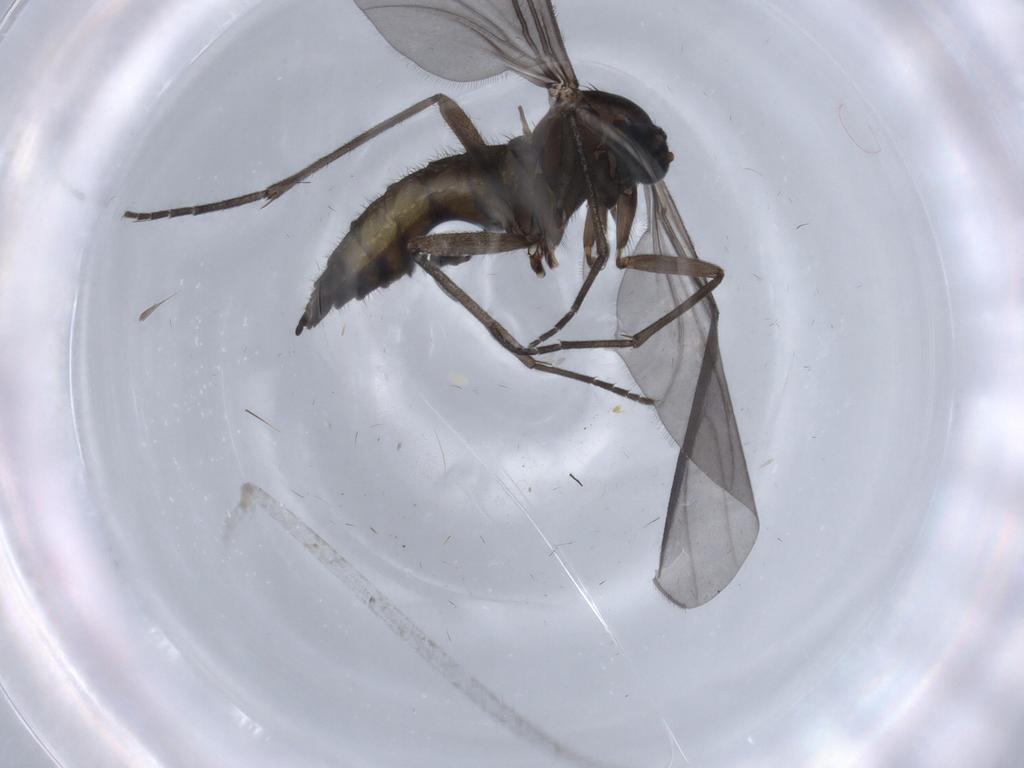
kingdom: Animalia
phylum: Arthropoda
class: Insecta
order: Diptera
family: Sciaridae
